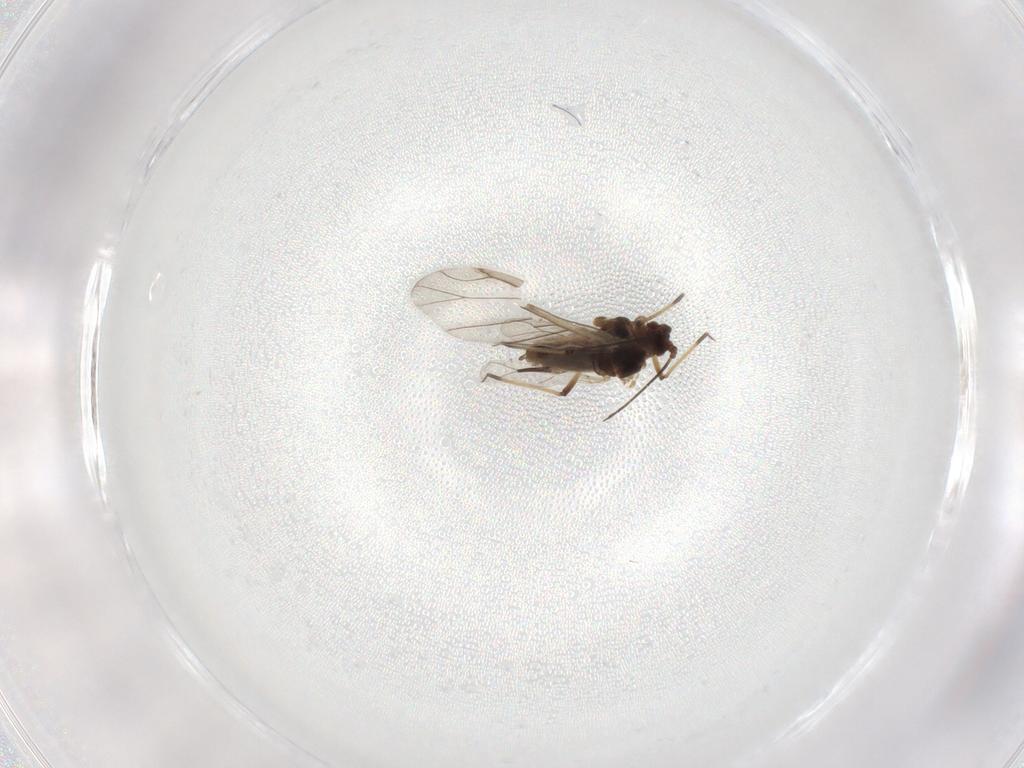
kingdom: Animalia
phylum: Arthropoda
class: Insecta
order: Hemiptera
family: Aphididae
